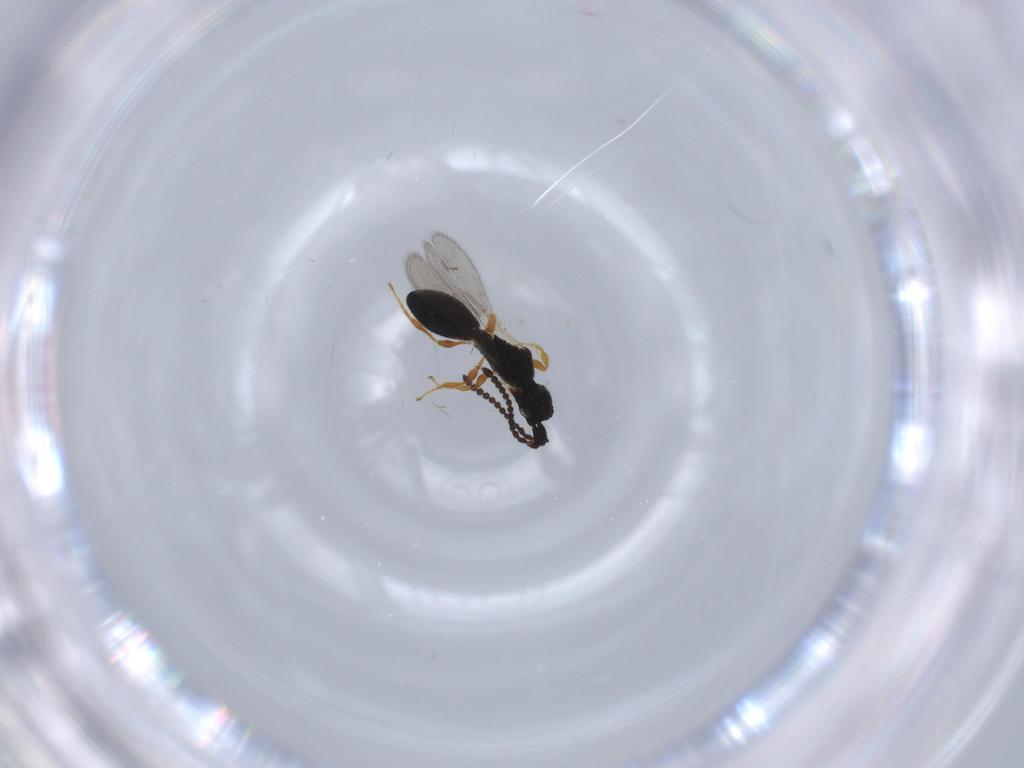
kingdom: Animalia
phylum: Arthropoda
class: Insecta
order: Hymenoptera
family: Diapriidae
